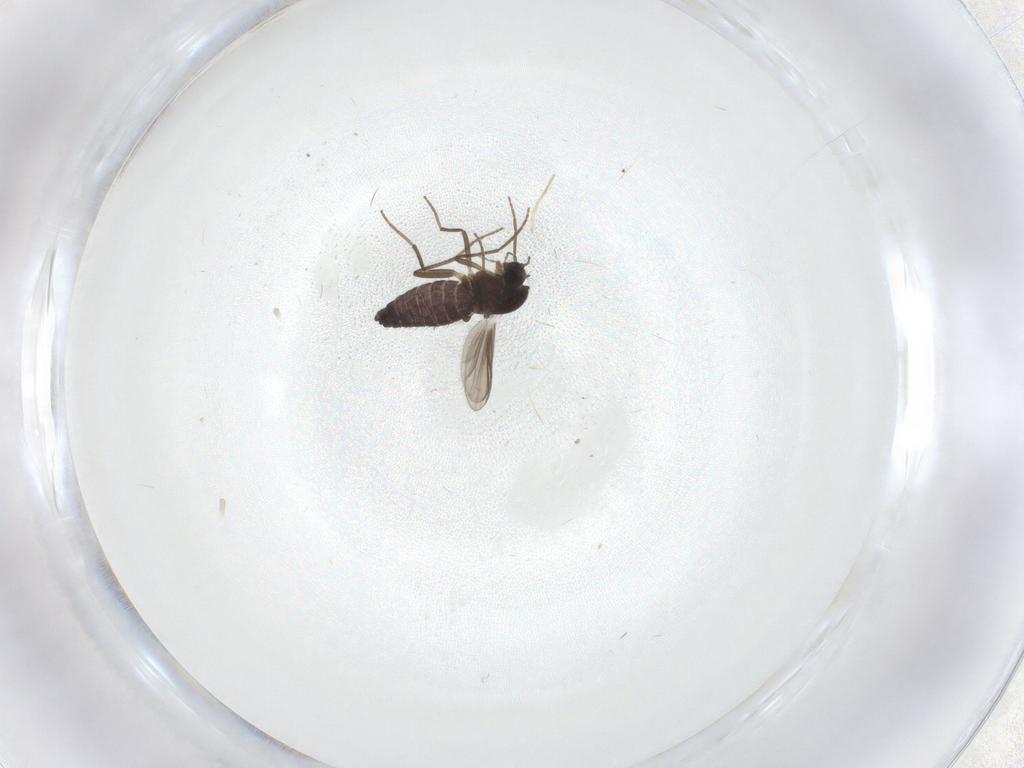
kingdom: Animalia
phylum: Arthropoda
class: Insecta
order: Diptera
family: Chironomidae
